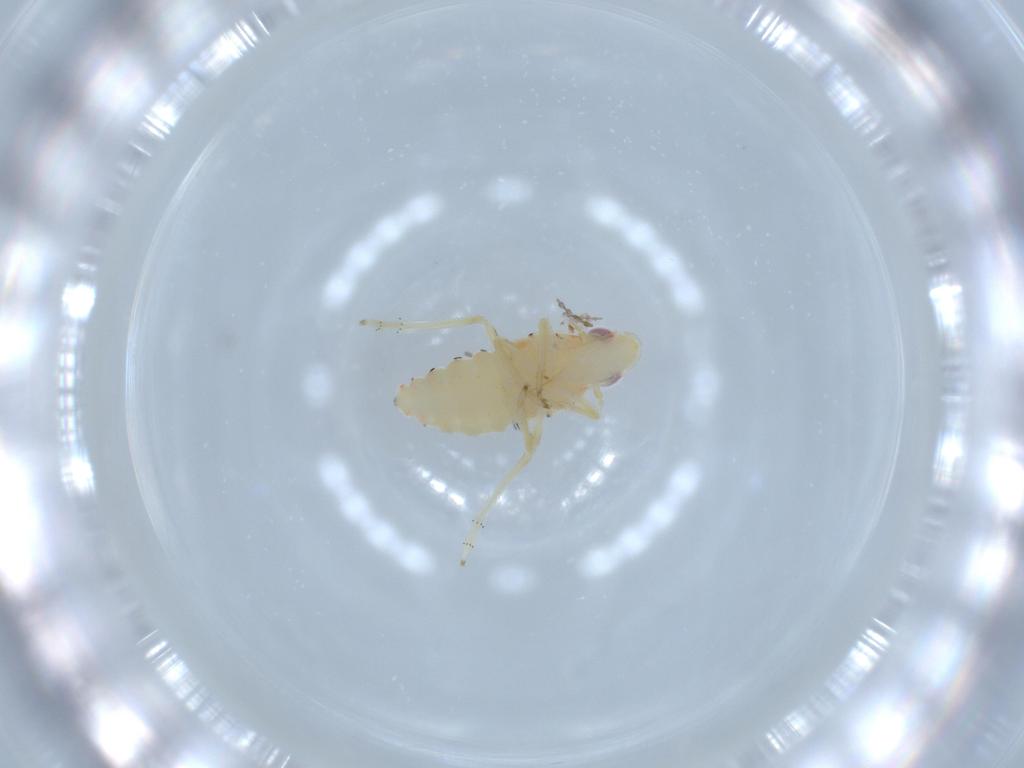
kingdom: Animalia
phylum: Arthropoda
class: Insecta
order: Hemiptera
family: Tropiduchidae
